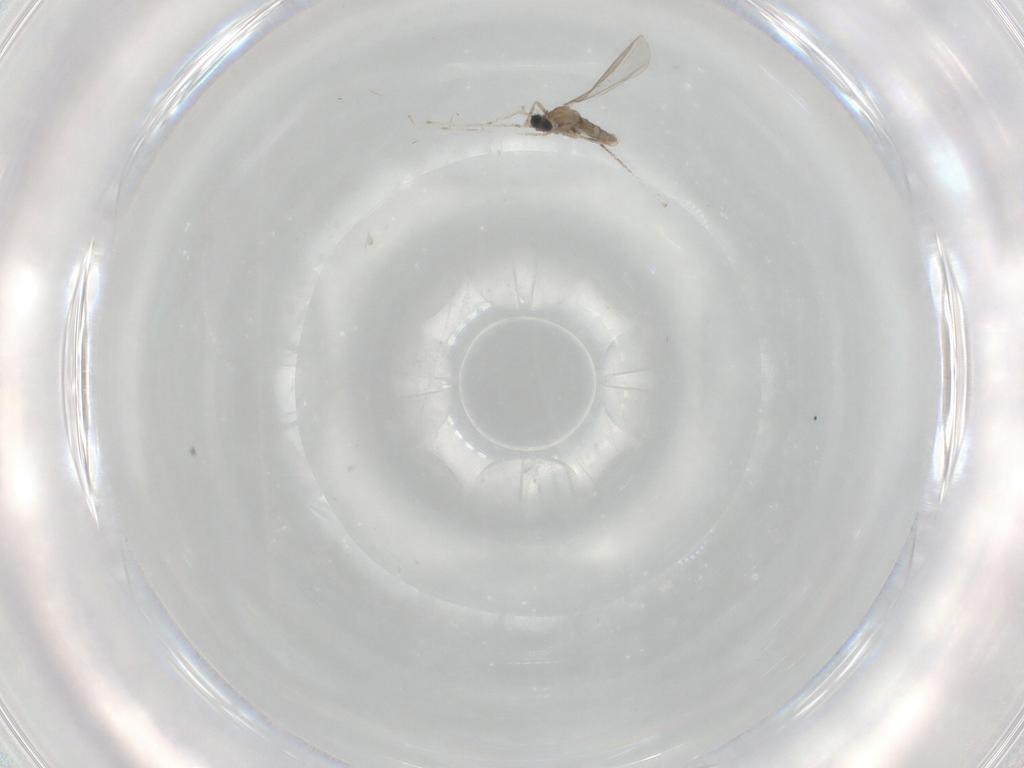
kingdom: Animalia
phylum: Arthropoda
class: Insecta
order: Diptera
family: Cecidomyiidae
